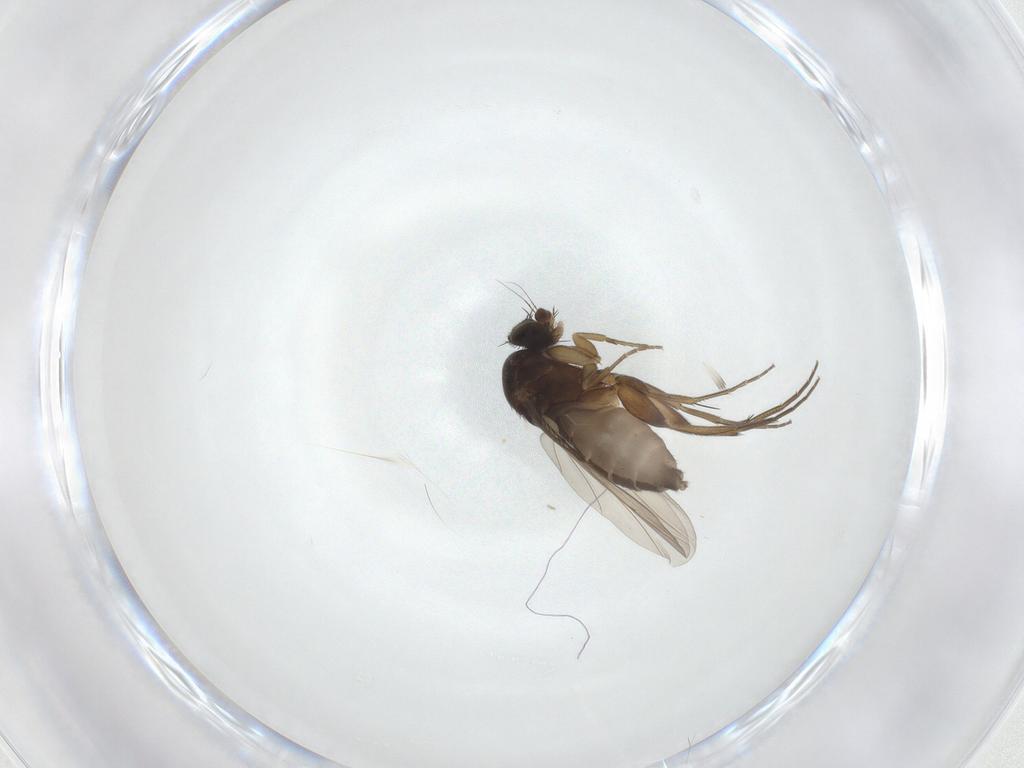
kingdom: Animalia
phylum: Arthropoda
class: Insecta
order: Diptera
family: Phoridae
